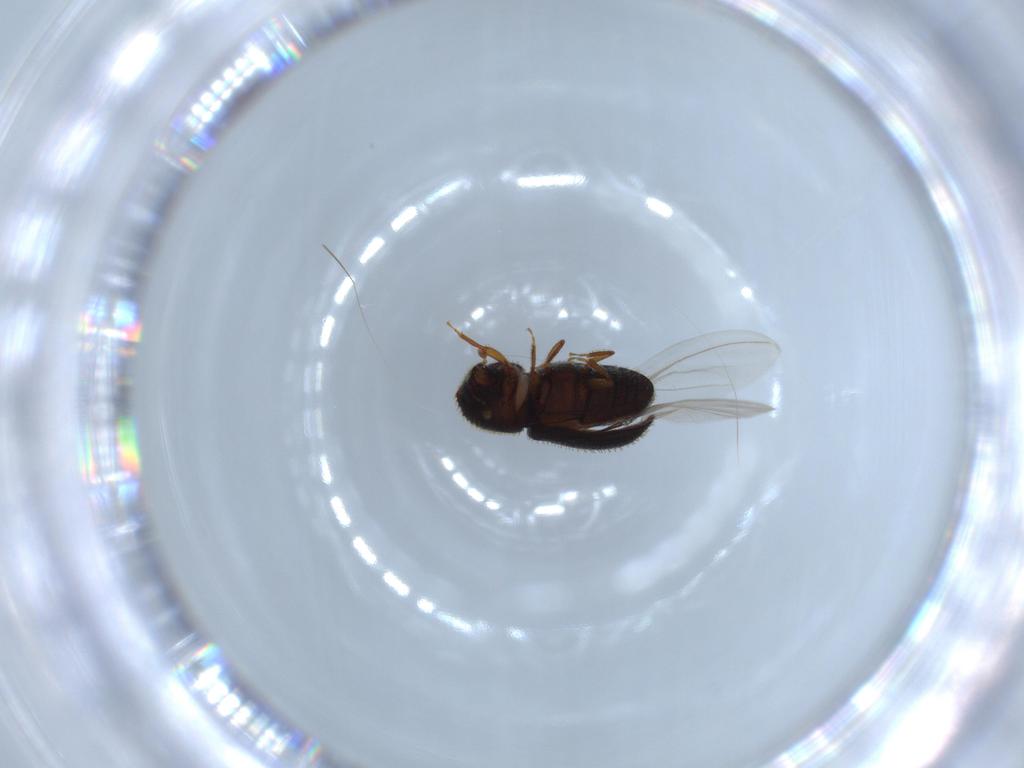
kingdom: Animalia
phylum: Arthropoda
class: Insecta
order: Coleoptera
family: Curculionidae
